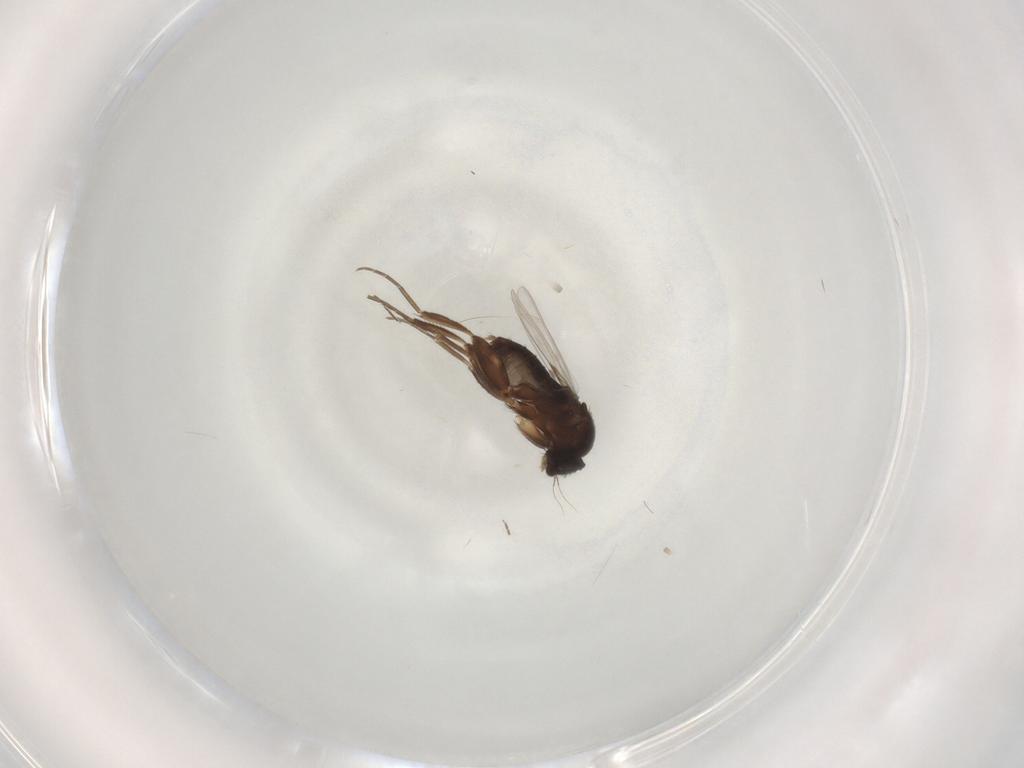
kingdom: Animalia
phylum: Arthropoda
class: Insecta
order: Diptera
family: Phoridae
